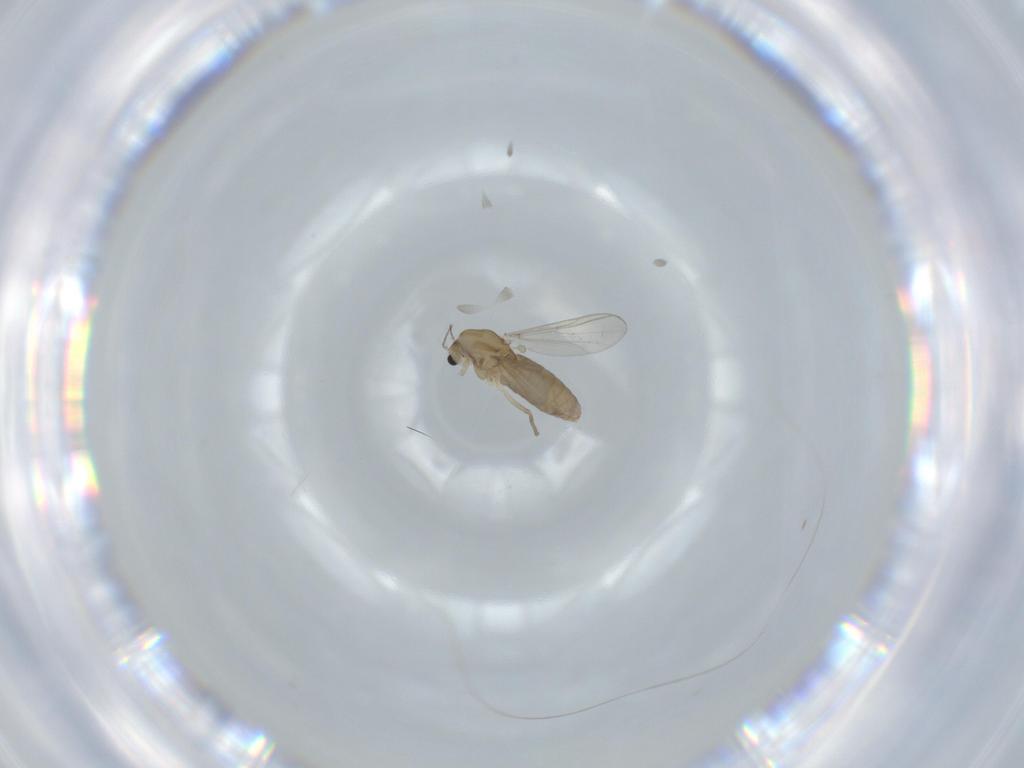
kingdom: Animalia
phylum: Arthropoda
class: Insecta
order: Diptera
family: Chironomidae
